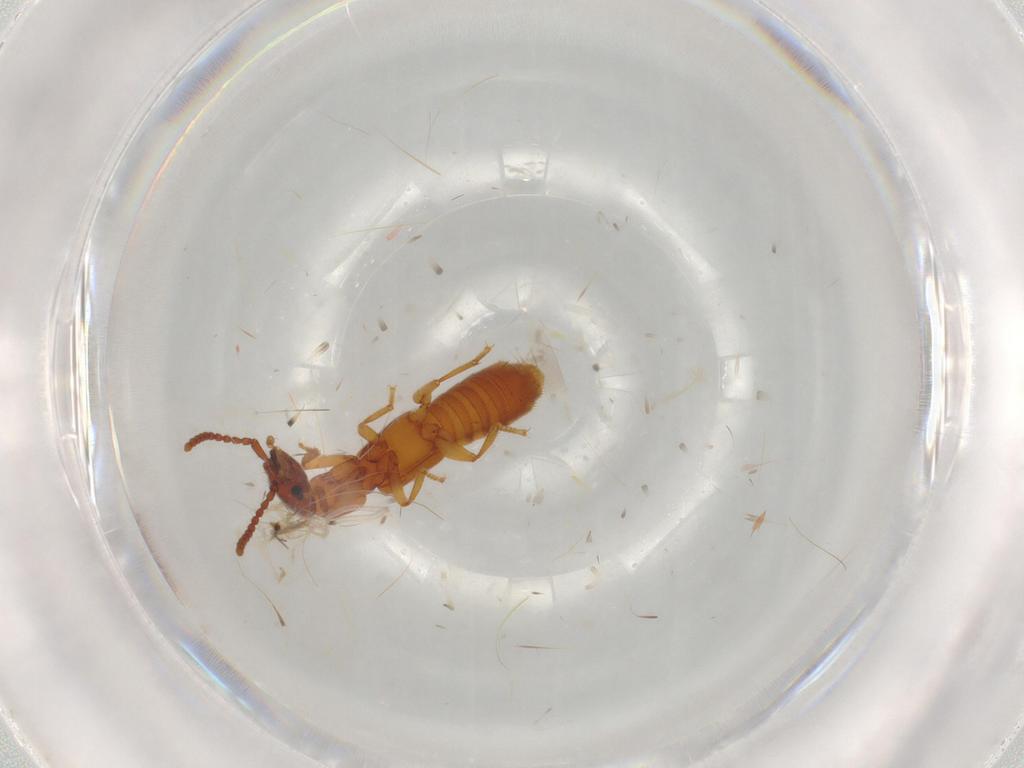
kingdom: Animalia
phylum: Arthropoda
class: Insecta
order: Coleoptera
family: Staphylinidae
